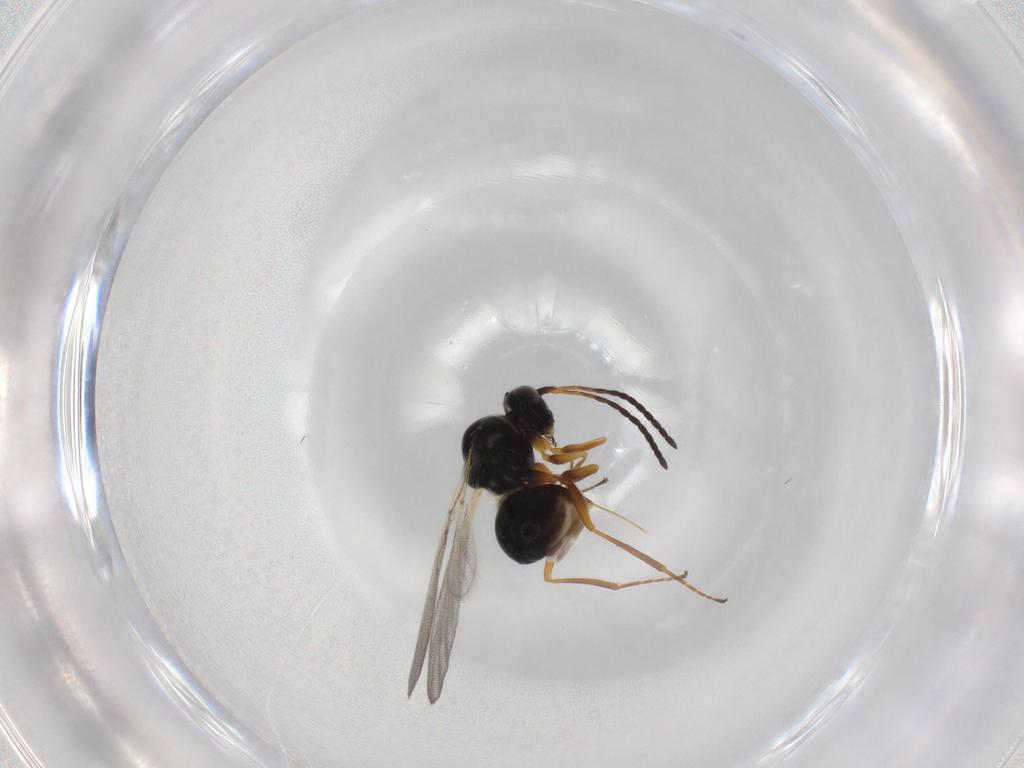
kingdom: Animalia
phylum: Arthropoda
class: Insecta
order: Hymenoptera
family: Figitidae
